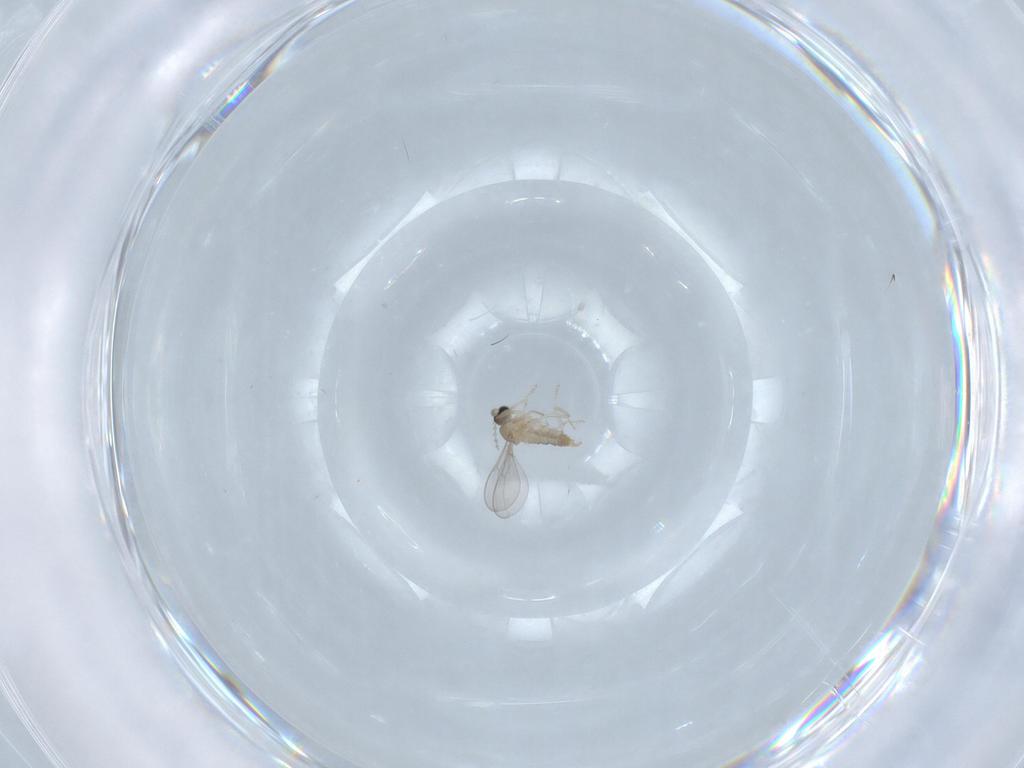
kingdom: Animalia
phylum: Arthropoda
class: Insecta
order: Diptera
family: Cecidomyiidae
